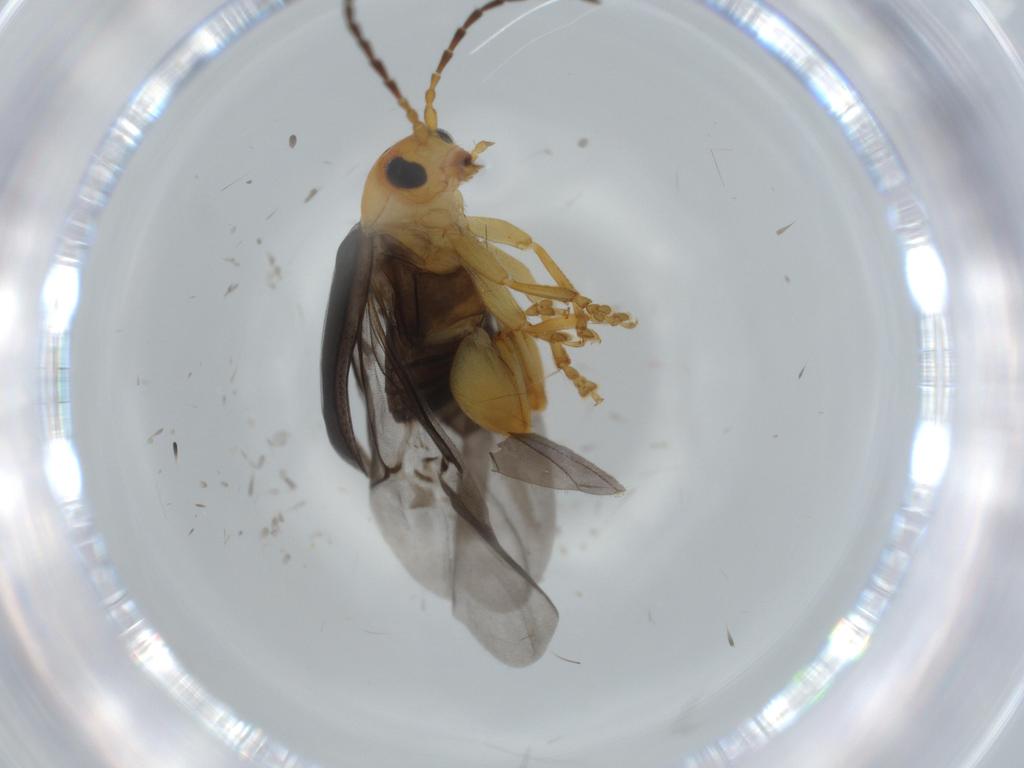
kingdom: Animalia
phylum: Arthropoda
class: Insecta
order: Coleoptera
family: Chrysomelidae
